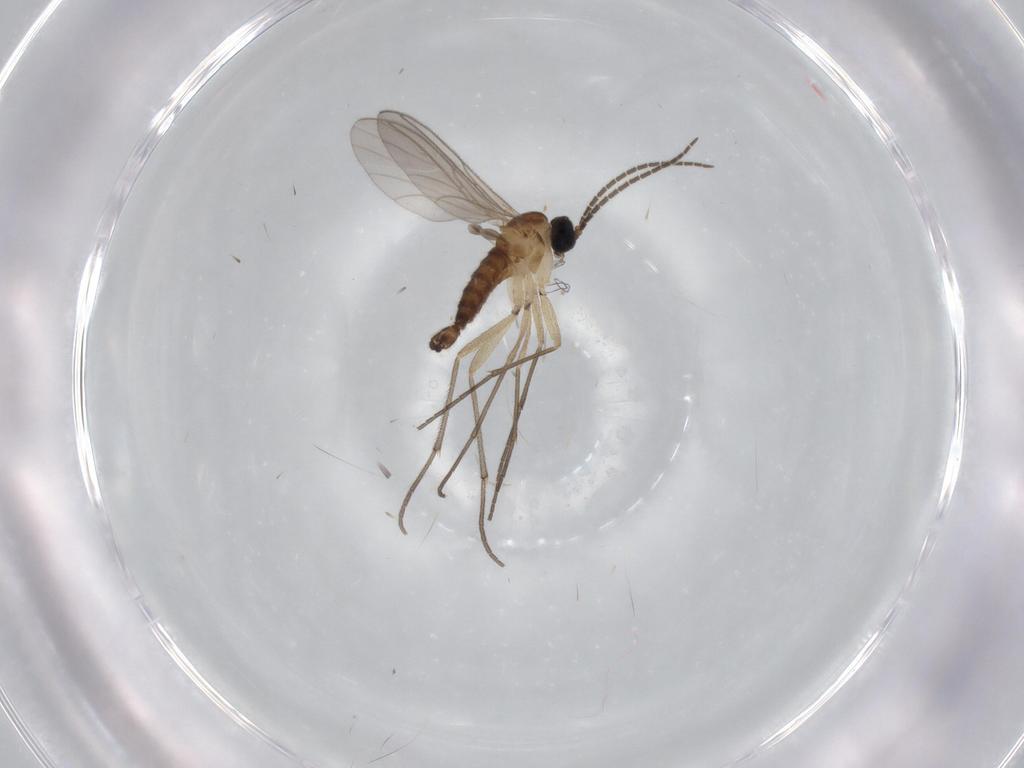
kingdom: Animalia
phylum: Arthropoda
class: Insecta
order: Diptera
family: Sciaridae
